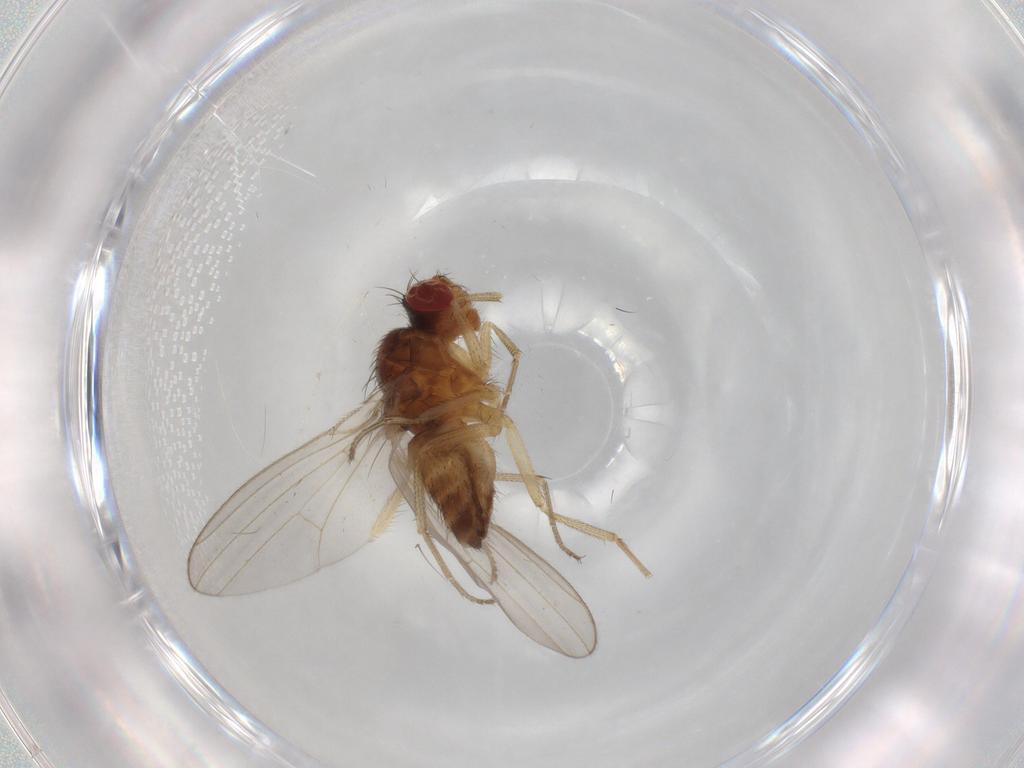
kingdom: Animalia
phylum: Arthropoda
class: Insecta
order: Diptera
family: Drosophilidae
